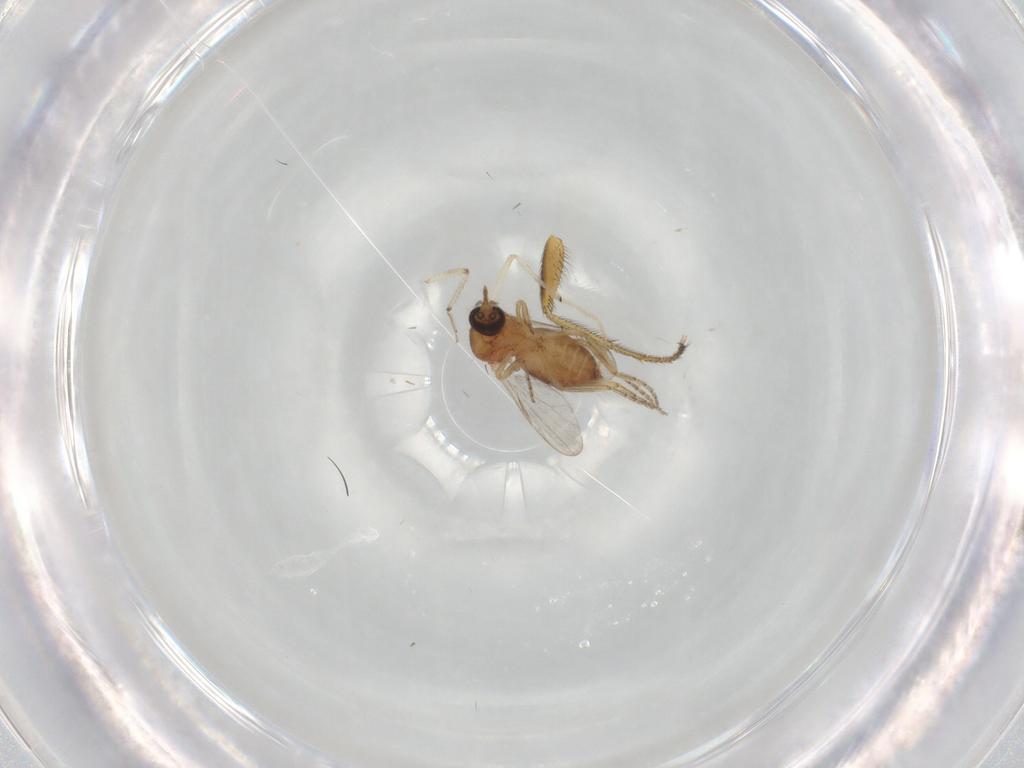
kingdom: Animalia
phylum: Arthropoda
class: Insecta
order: Diptera
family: Ceratopogonidae
